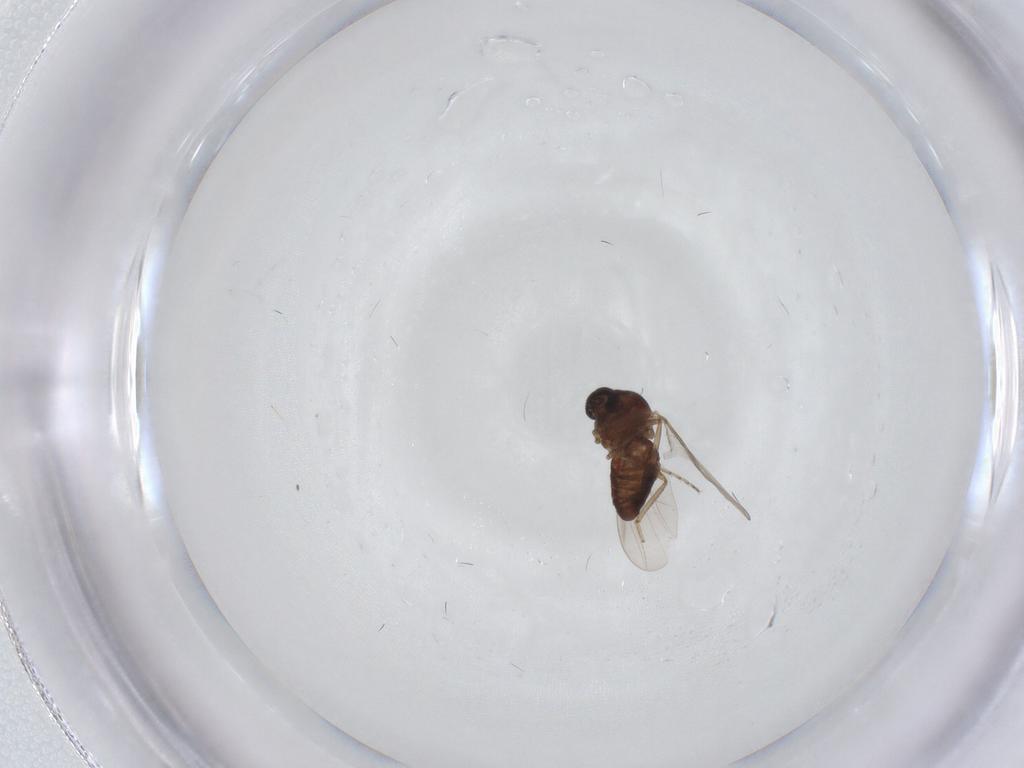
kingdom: Animalia
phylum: Arthropoda
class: Insecta
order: Diptera
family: Ceratopogonidae
